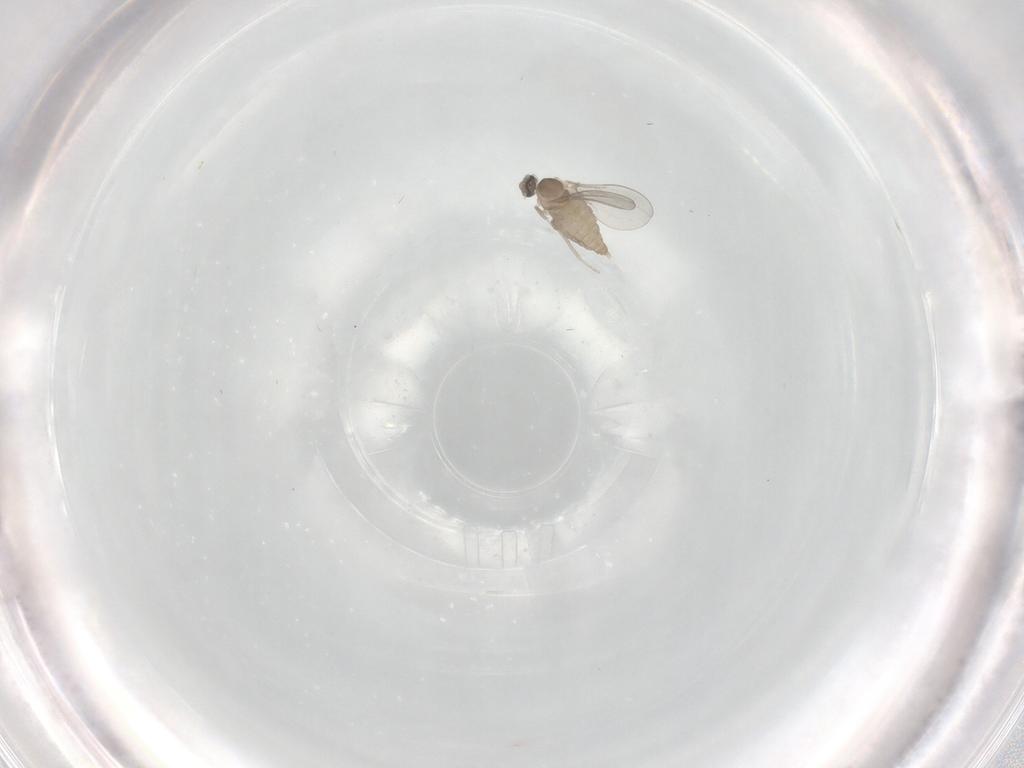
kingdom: Animalia
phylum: Arthropoda
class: Insecta
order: Diptera
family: Cecidomyiidae
